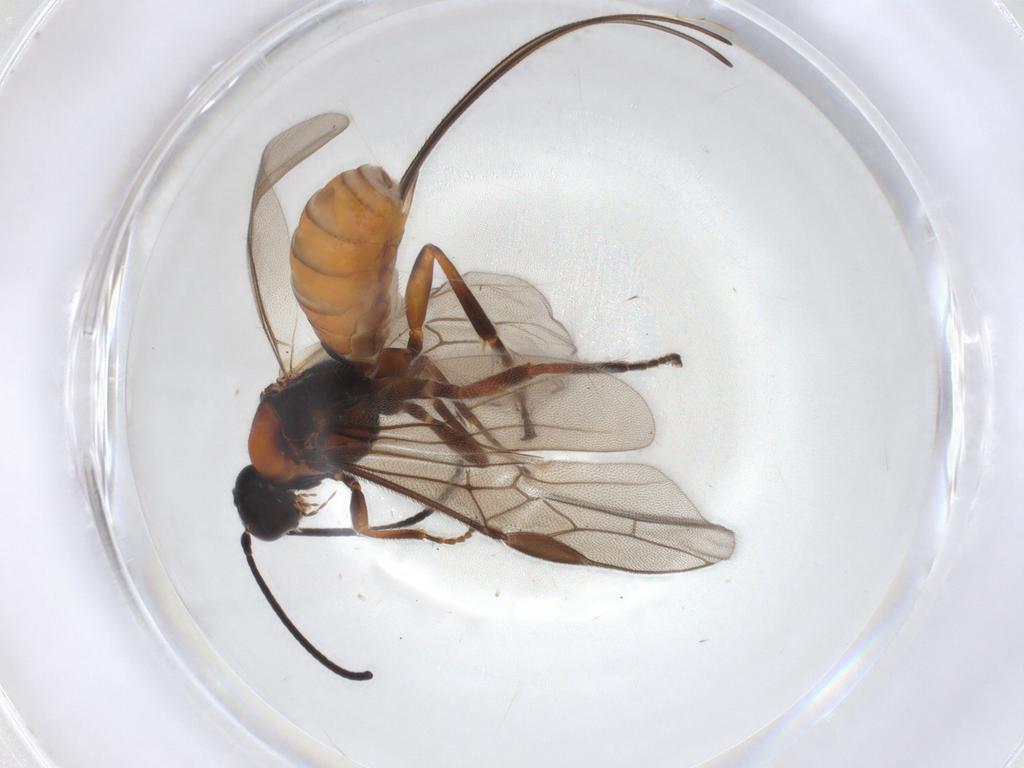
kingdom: Animalia
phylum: Arthropoda
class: Insecta
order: Hymenoptera
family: Braconidae
